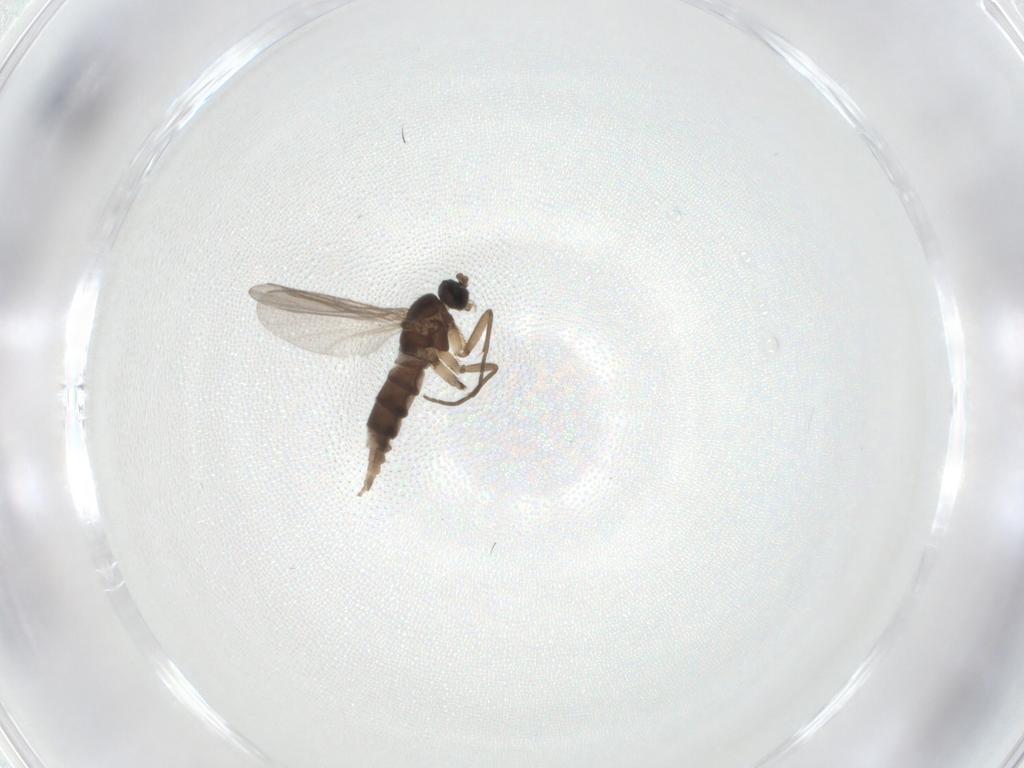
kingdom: Animalia
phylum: Arthropoda
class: Insecta
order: Diptera
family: Sciaridae
